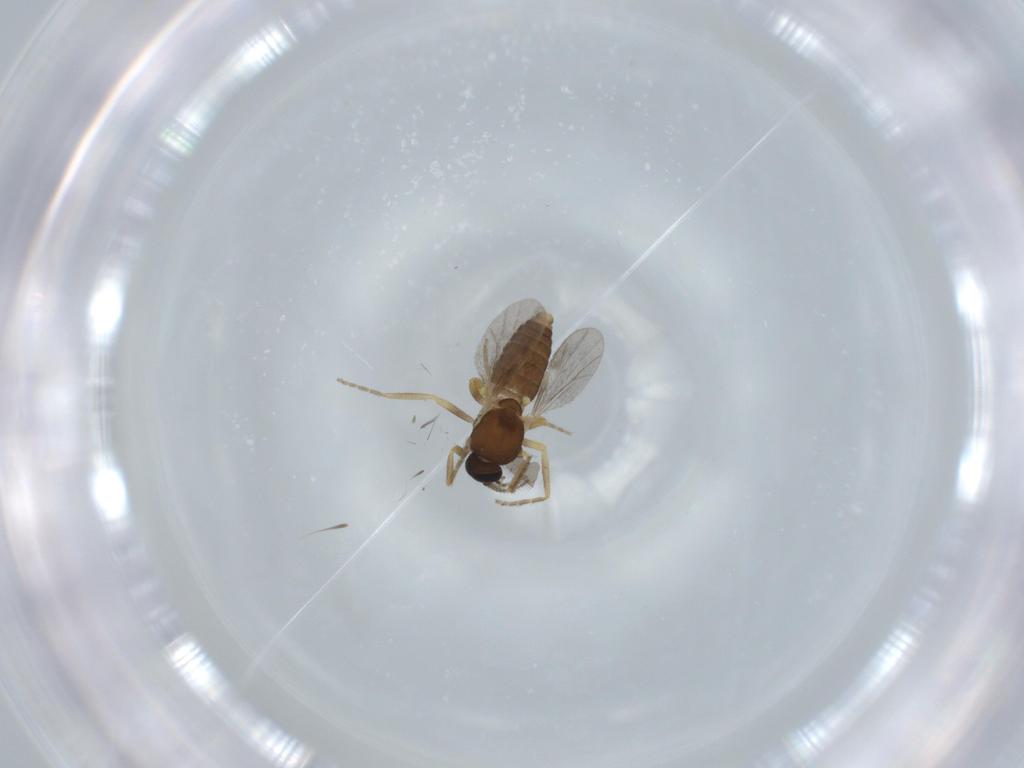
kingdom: Animalia
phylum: Arthropoda
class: Insecta
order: Diptera
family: Ceratopogonidae
